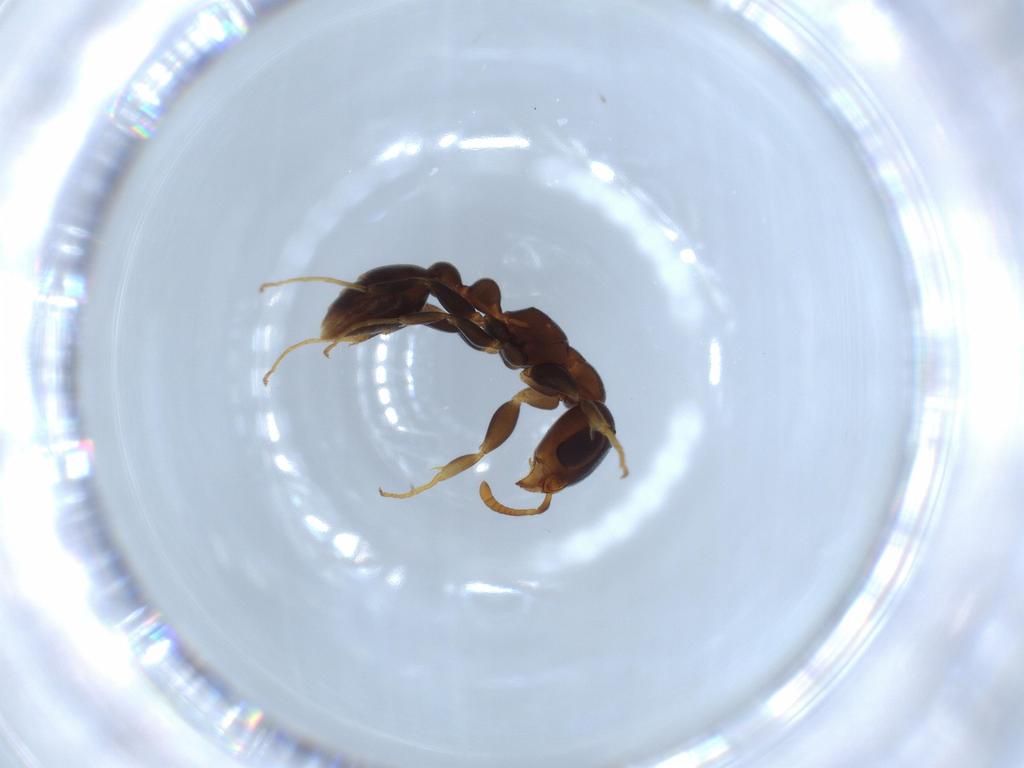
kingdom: Animalia
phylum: Arthropoda
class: Insecta
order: Hymenoptera
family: Formicidae
